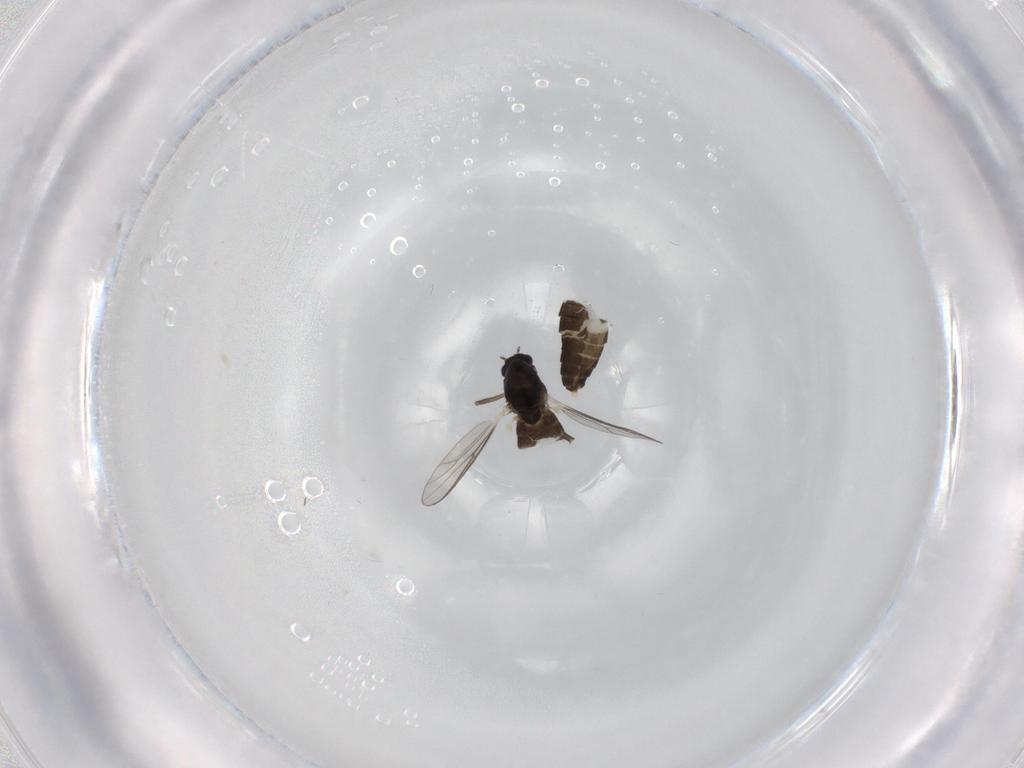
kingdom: Animalia
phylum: Arthropoda
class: Insecta
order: Diptera
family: Chironomidae
